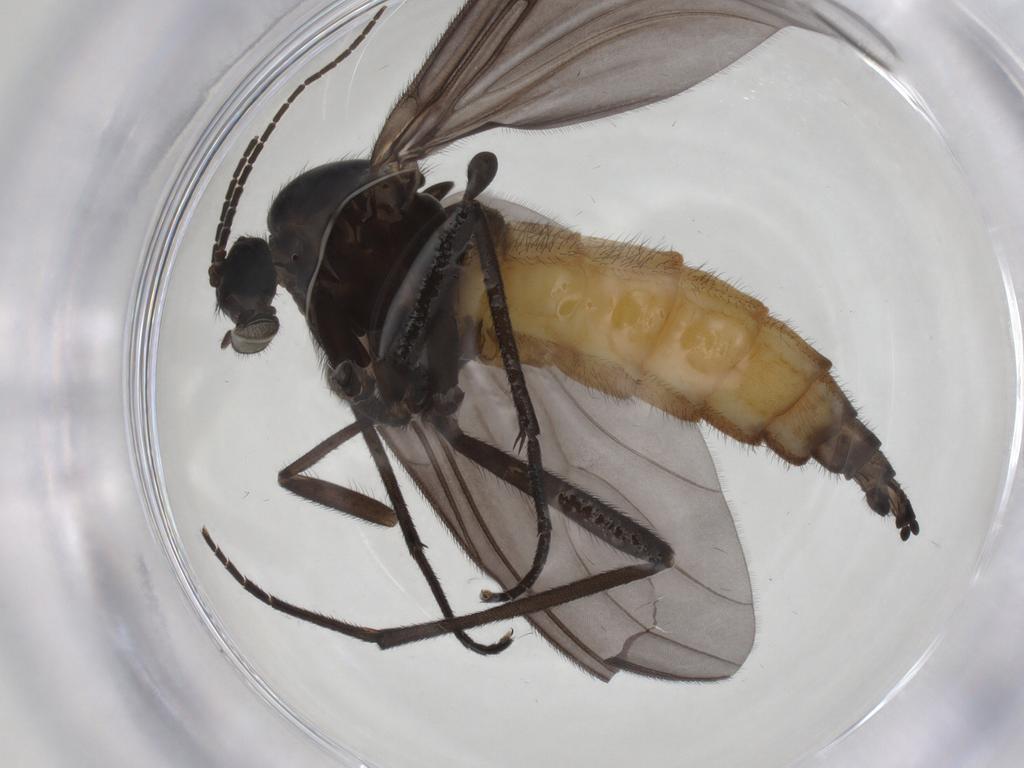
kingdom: Animalia
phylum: Arthropoda
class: Insecta
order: Diptera
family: Sciaridae
